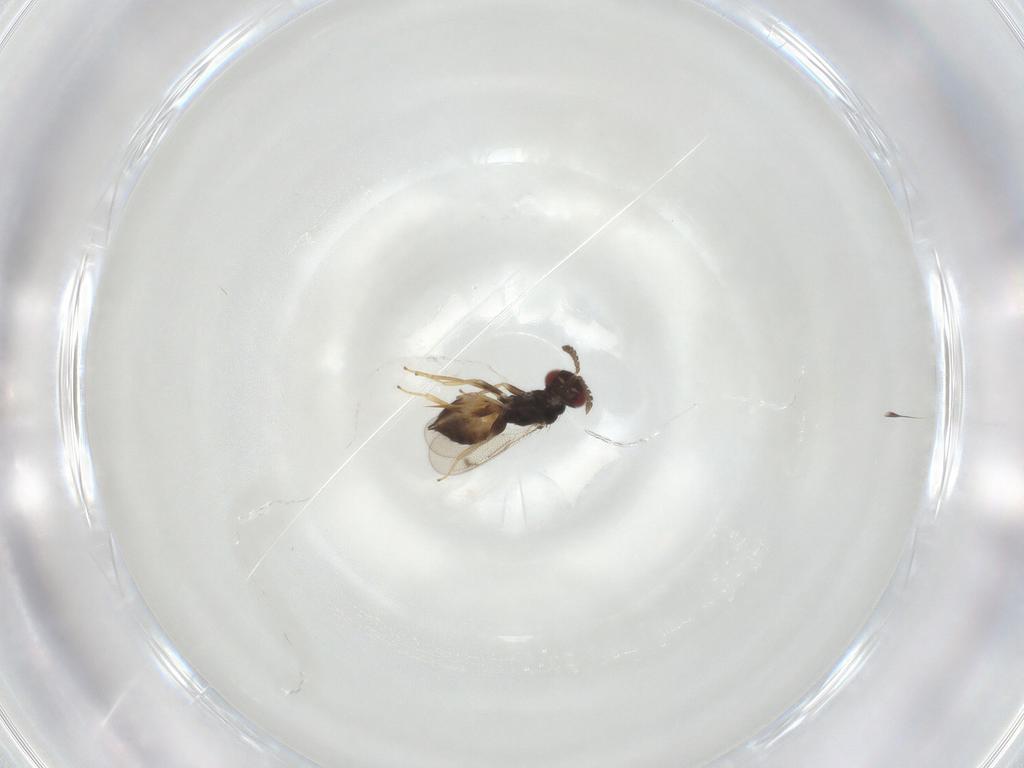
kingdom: Animalia
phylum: Arthropoda
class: Insecta
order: Hymenoptera
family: Eulophidae
